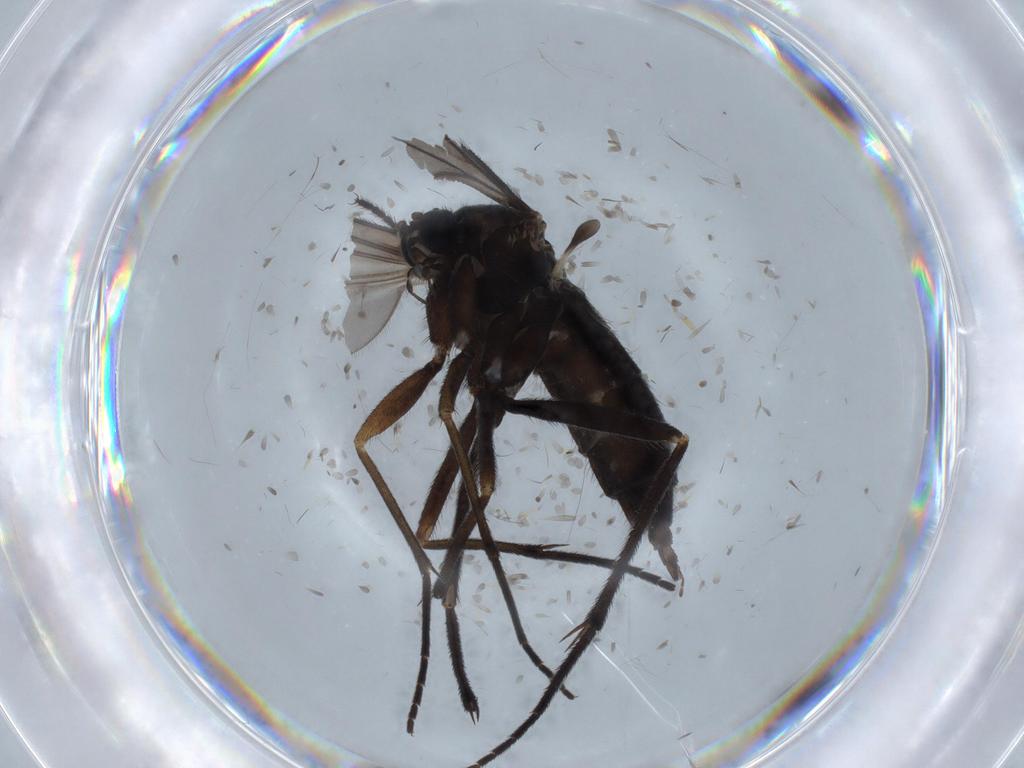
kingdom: Animalia
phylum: Arthropoda
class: Insecta
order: Diptera
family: Sciaridae
